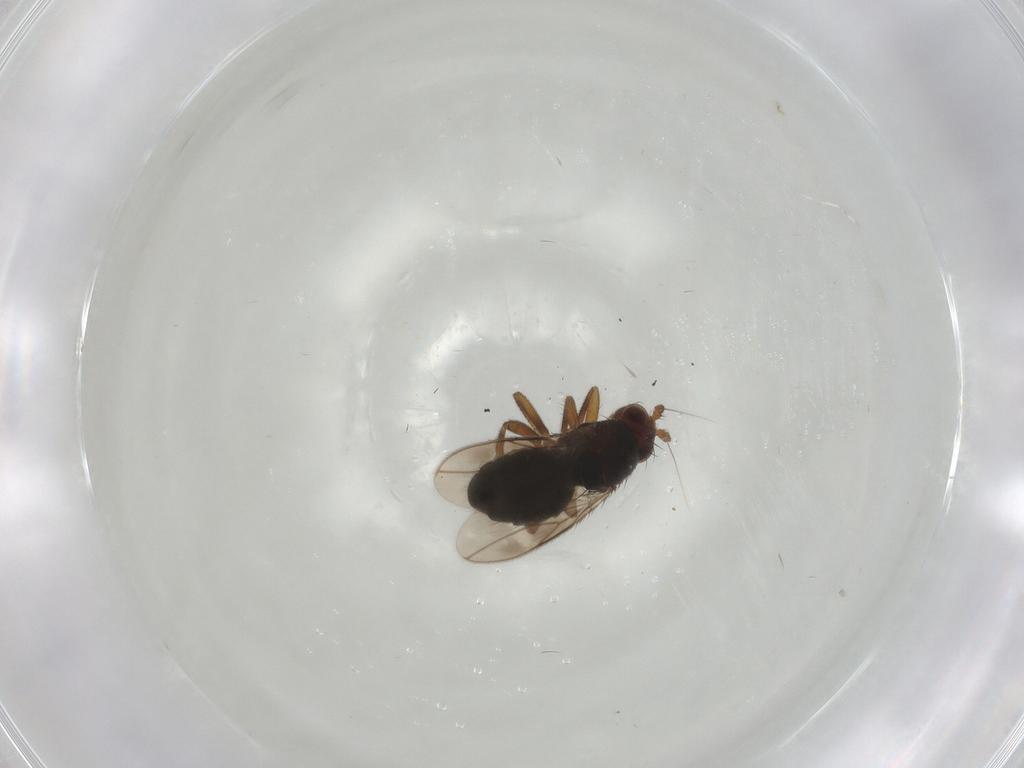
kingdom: Animalia
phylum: Arthropoda
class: Insecta
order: Diptera
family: Sphaeroceridae
